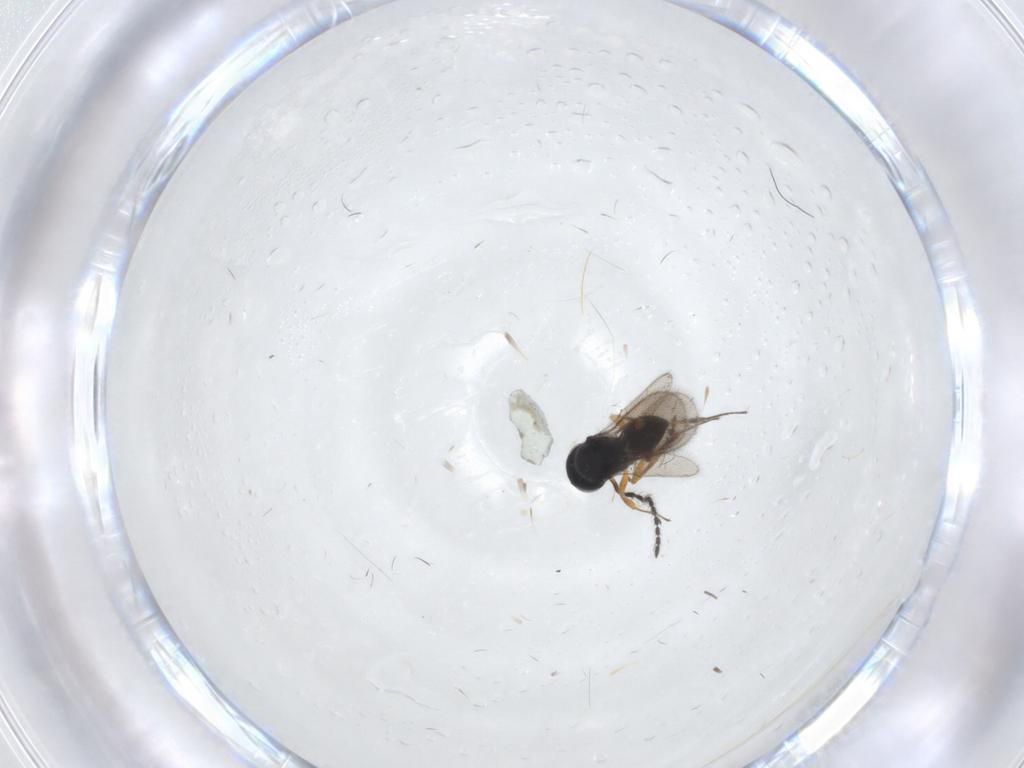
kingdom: Animalia
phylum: Arthropoda
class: Insecta
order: Hymenoptera
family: Scelionidae
